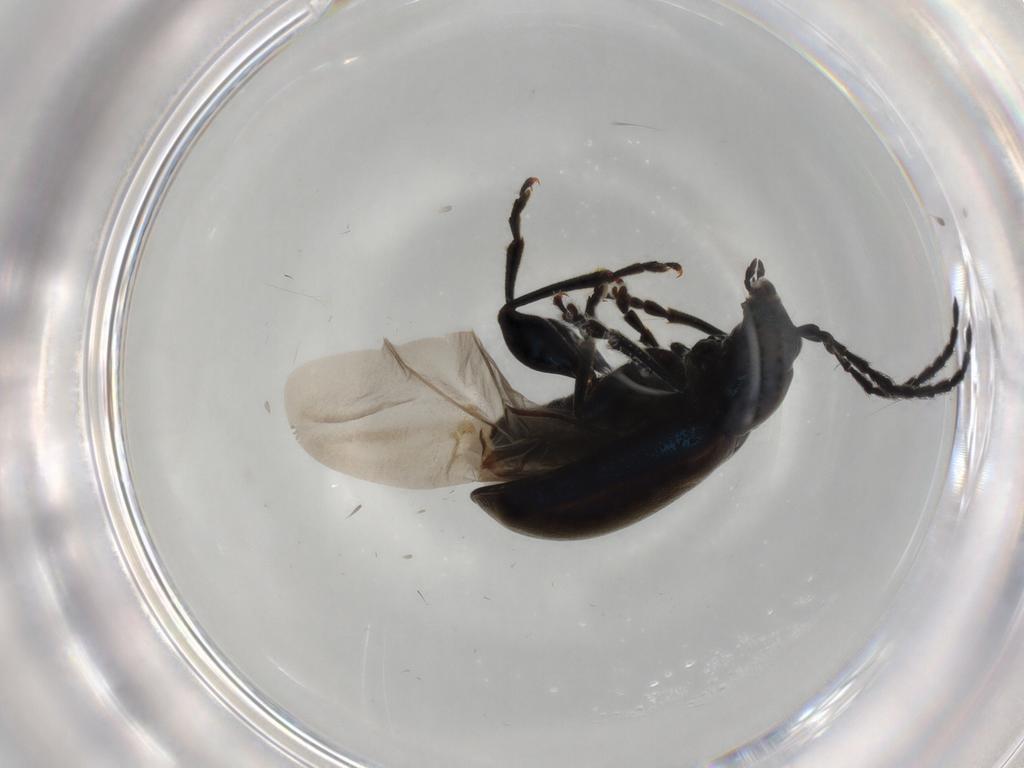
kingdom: Animalia
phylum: Arthropoda
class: Insecta
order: Coleoptera
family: Chrysomelidae
